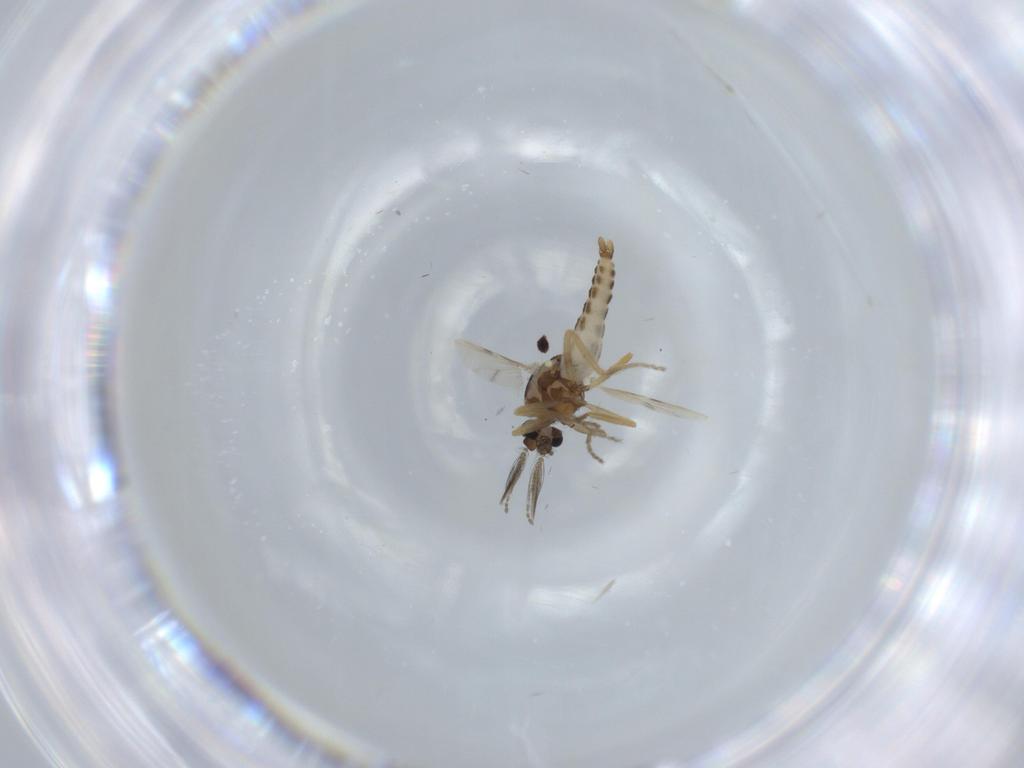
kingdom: Animalia
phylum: Arthropoda
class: Insecta
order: Diptera
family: Ceratopogonidae
